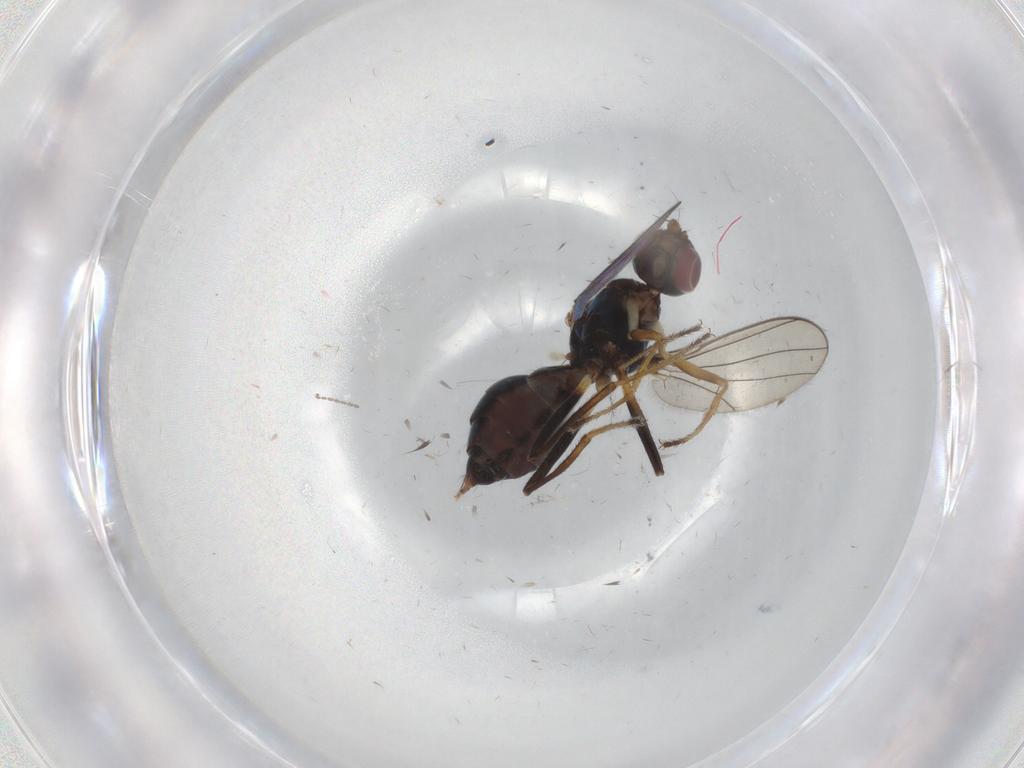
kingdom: Animalia
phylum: Arthropoda
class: Insecta
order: Diptera
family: Sepsidae
